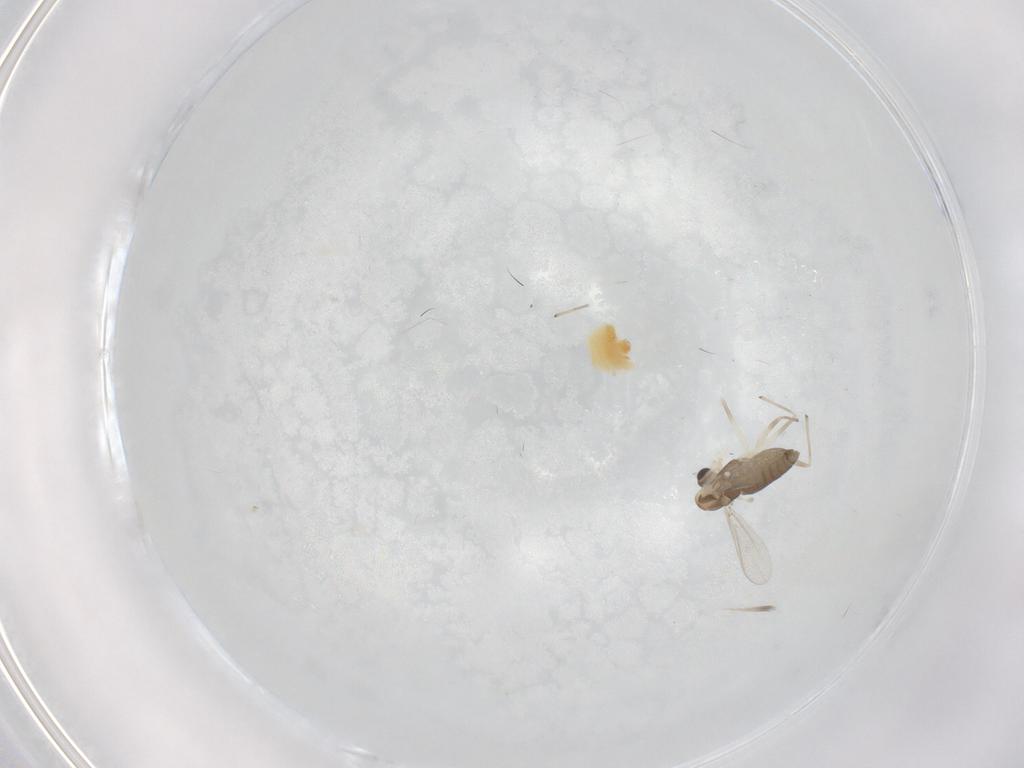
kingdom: Animalia
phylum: Arthropoda
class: Insecta
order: Diptera
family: Chironomidae
